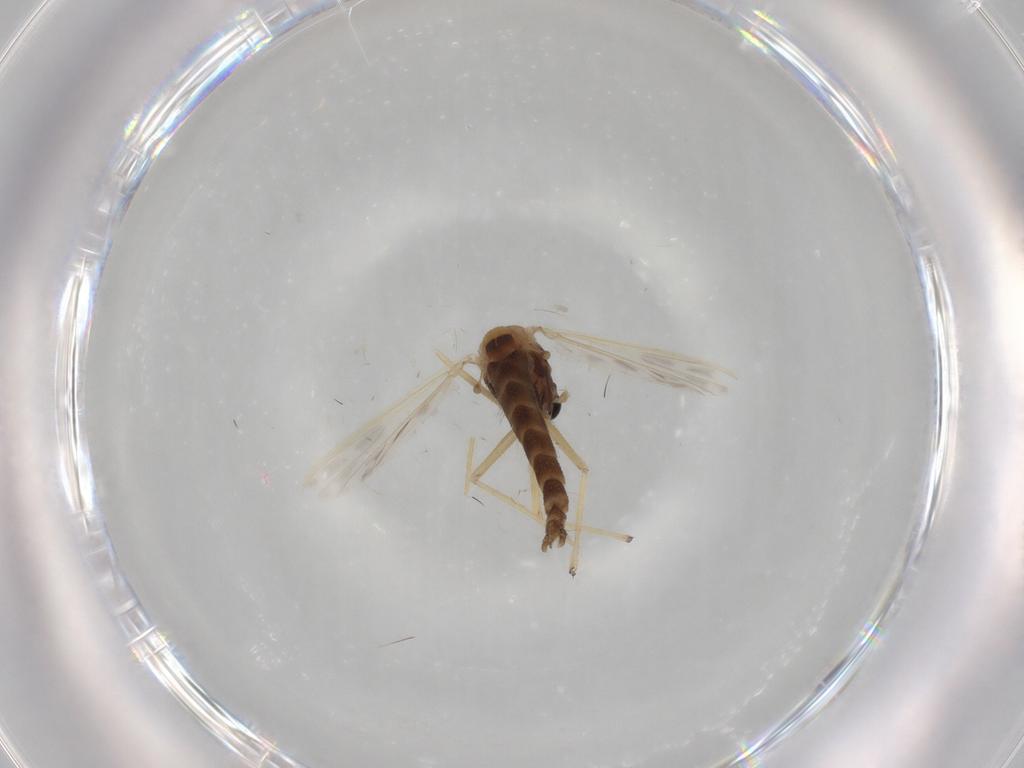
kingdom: Animalia
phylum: Arthropoda
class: Insecta
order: Diptera
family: Chironomidae
